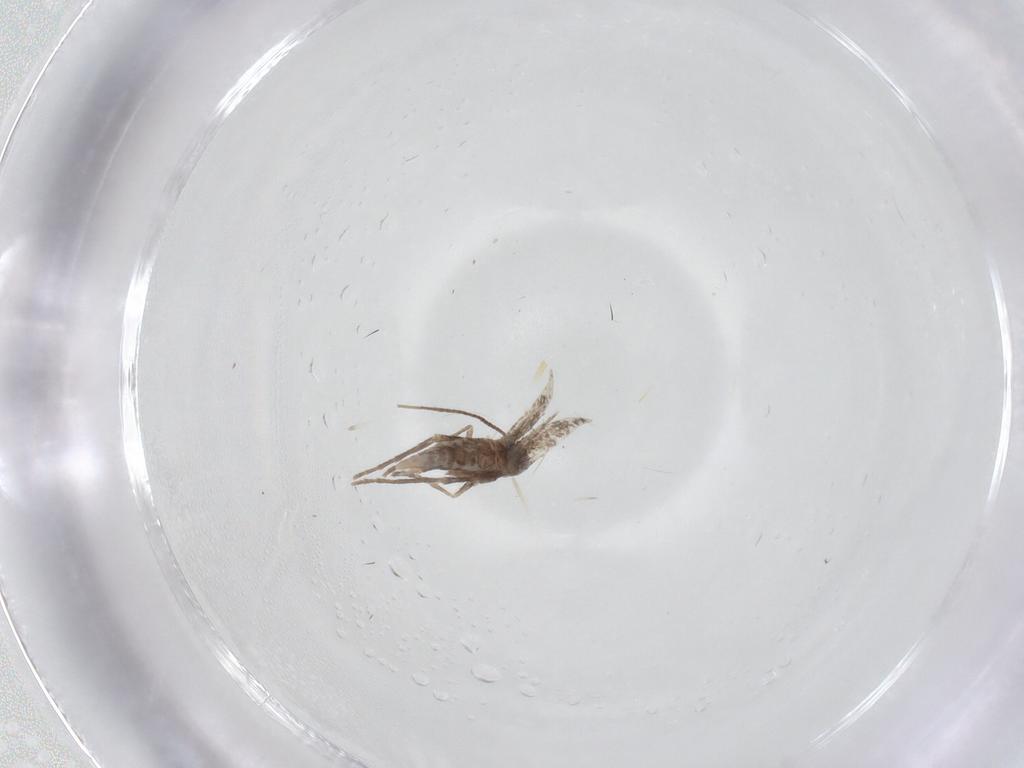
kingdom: Animalia
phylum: Arthropoda
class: Insecta
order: Lepidoptera
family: Gracillariidae
